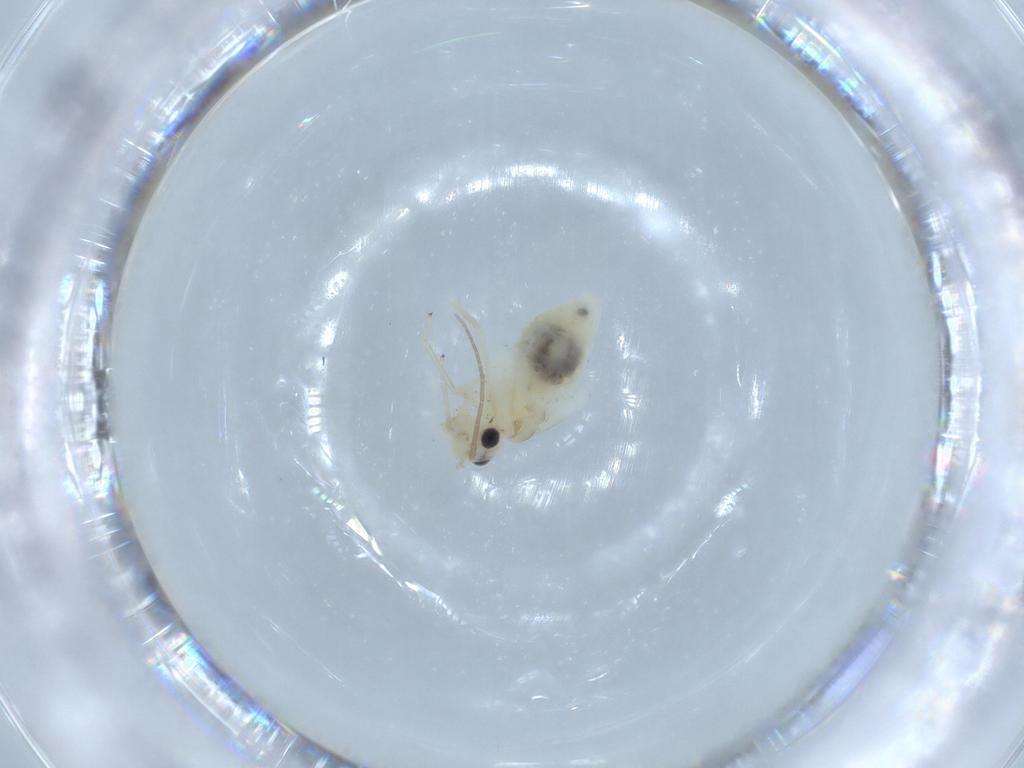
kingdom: Animalia
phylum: Arthropoda
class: Insecta
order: Psocodea
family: Caeciliusidae
